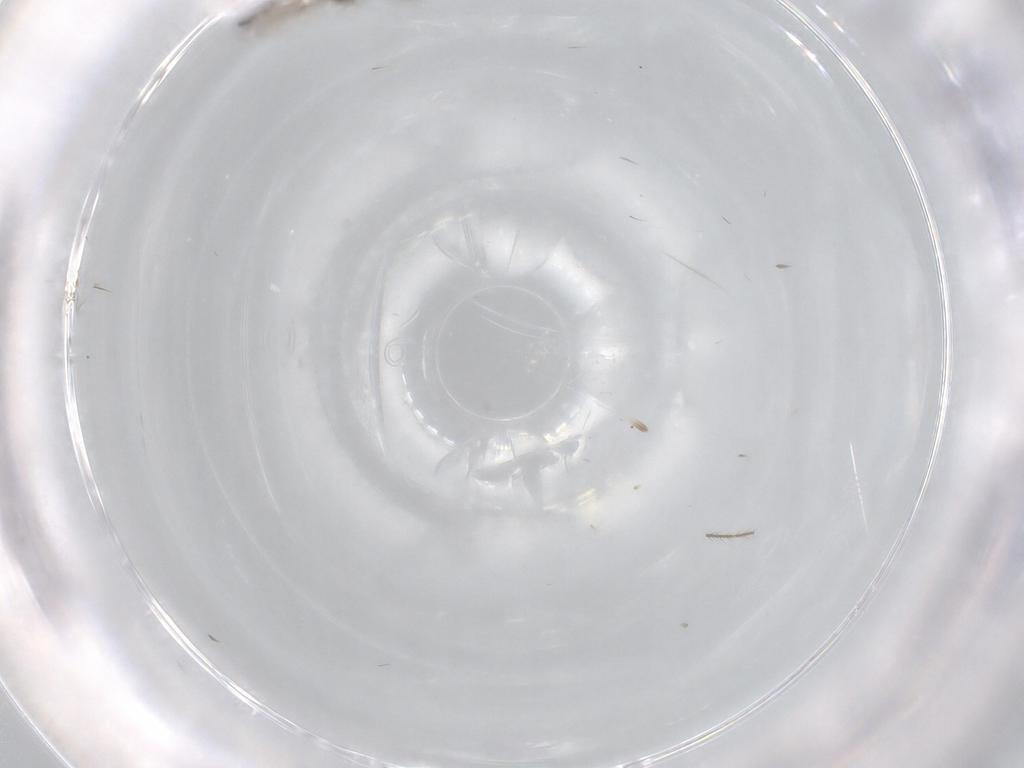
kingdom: Animalia
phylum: Arthropoda
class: Insecta
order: Diptera
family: Sciaridae
